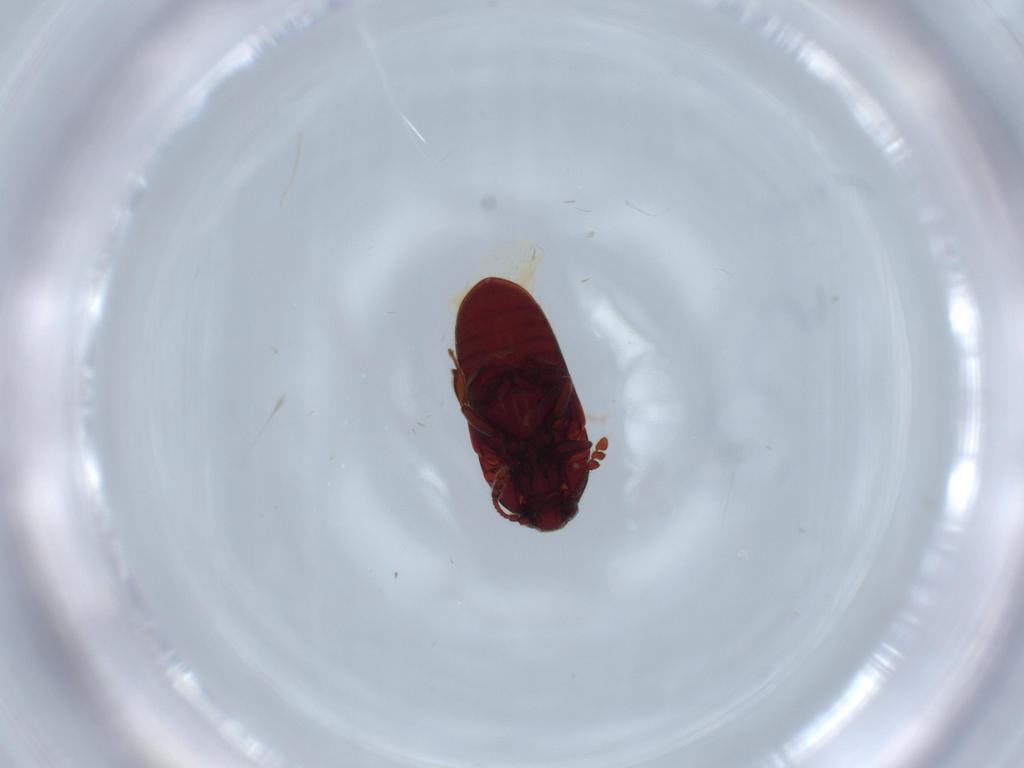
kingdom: Animalia
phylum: Arthropoda
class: Insecta
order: Coleoptera
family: Throscidae
